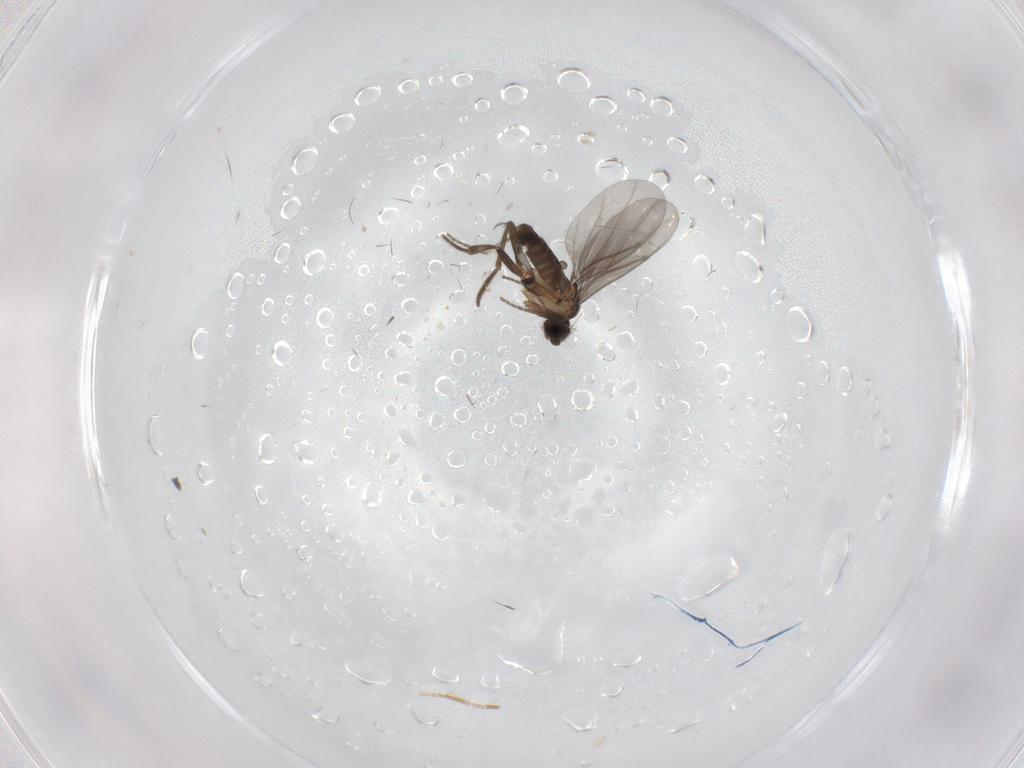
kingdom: Animalia
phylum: Arthropoda
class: Insecta
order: Diptera
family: Phoridae
